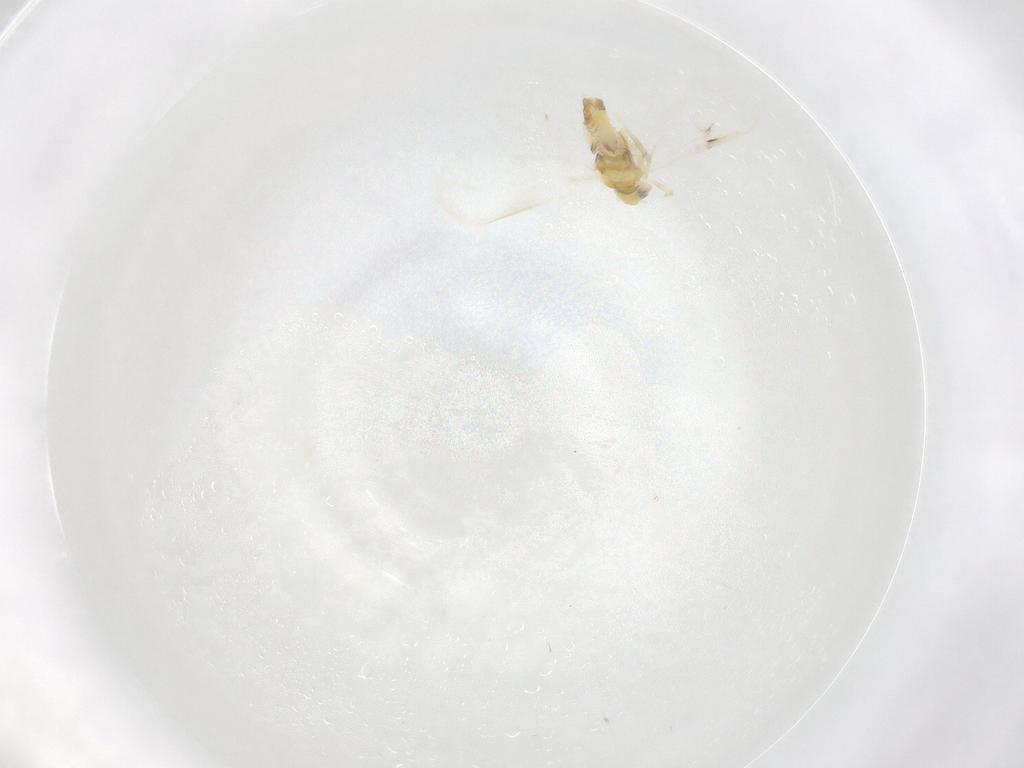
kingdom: Animalia
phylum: Arthropoda
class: Insecta
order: Hemiptera
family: Aleyrodidae
